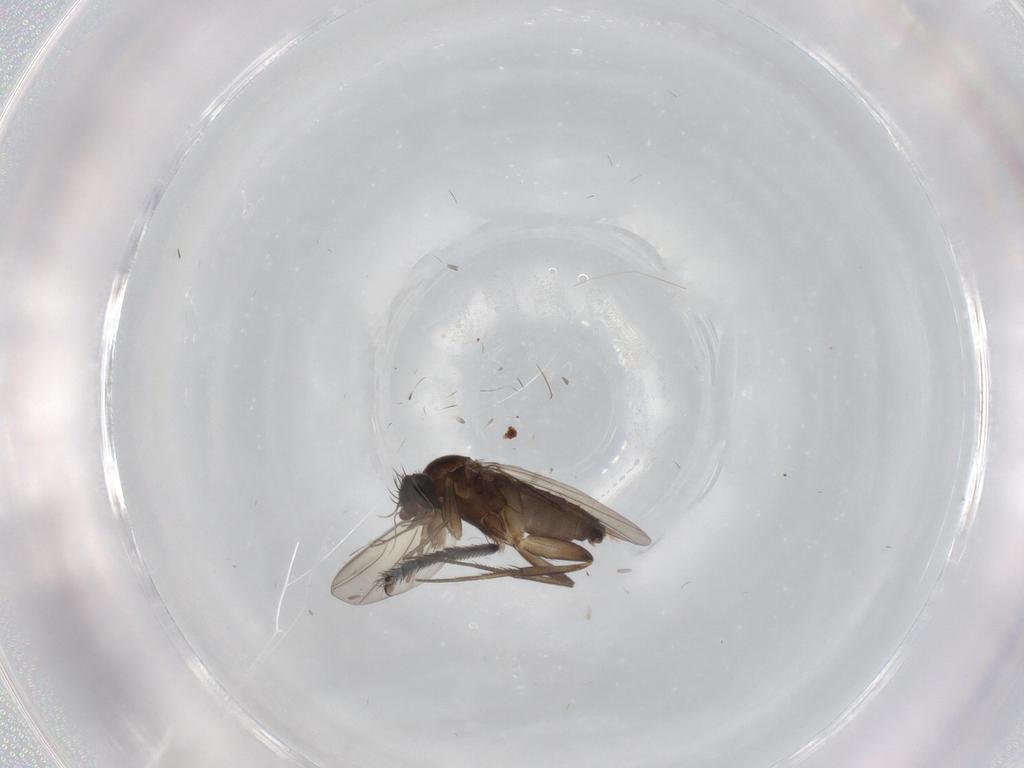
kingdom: Animalia
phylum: Arthropoda
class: Insecta
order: Diptera
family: Phoridae
